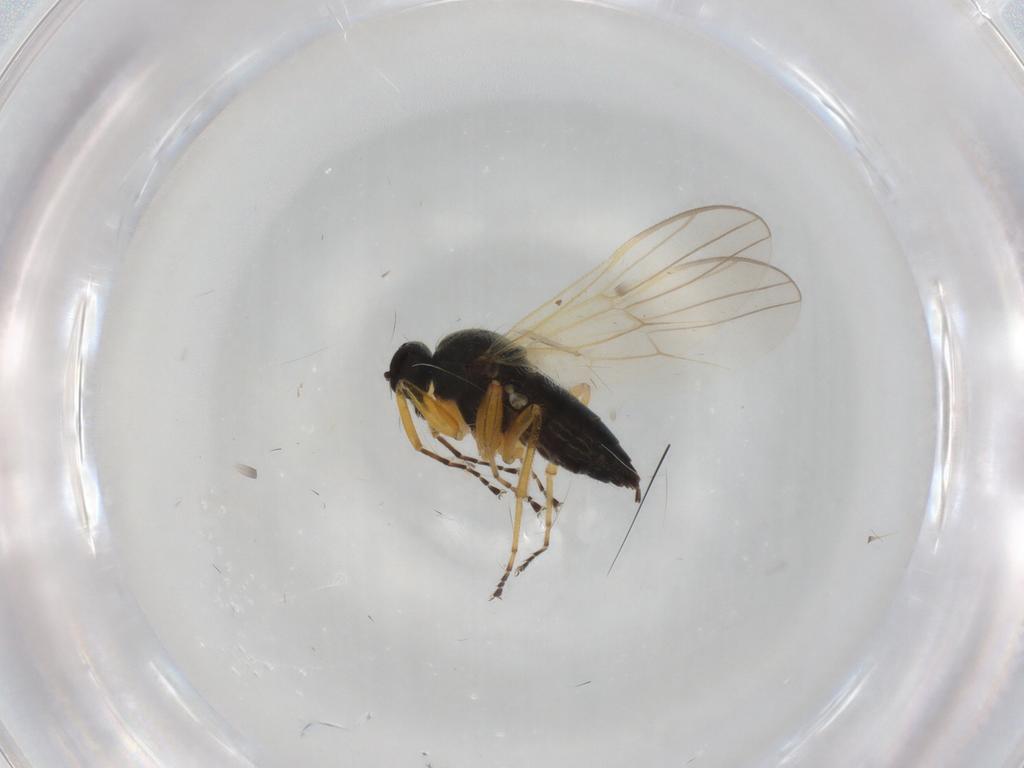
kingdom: Animalia
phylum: Arthropoda
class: Insecta
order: Diptera
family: Hybotidae
